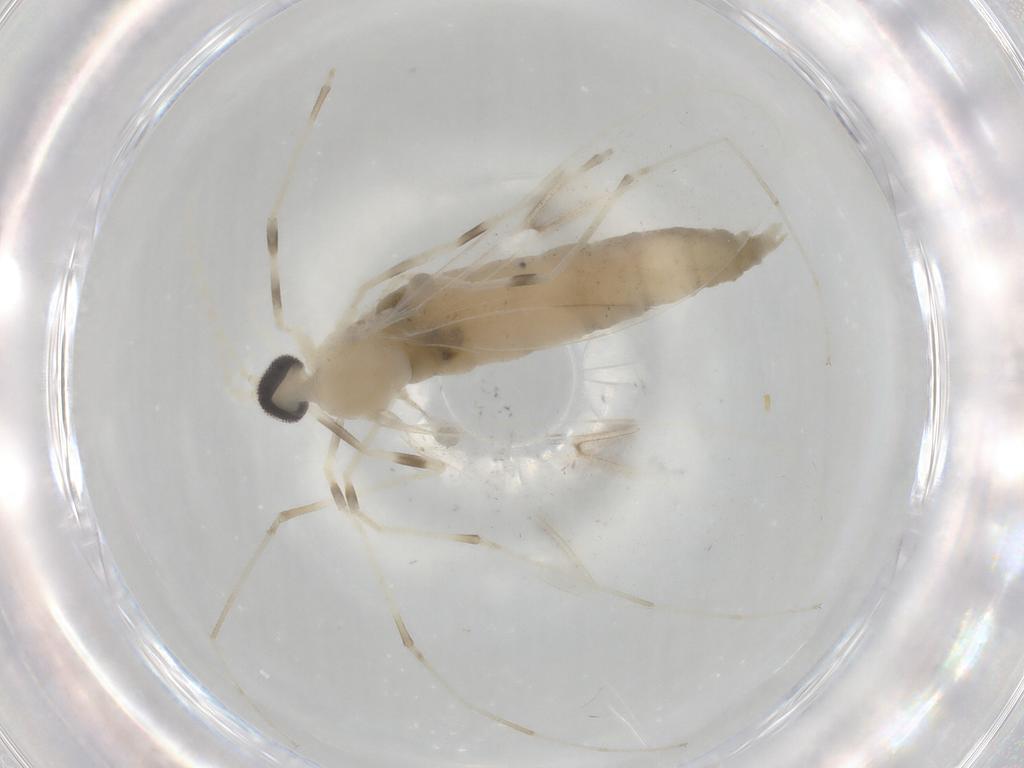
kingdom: Animalia
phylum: Arthropoda
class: Insecta
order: Diptera
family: Cecidomyiidae
